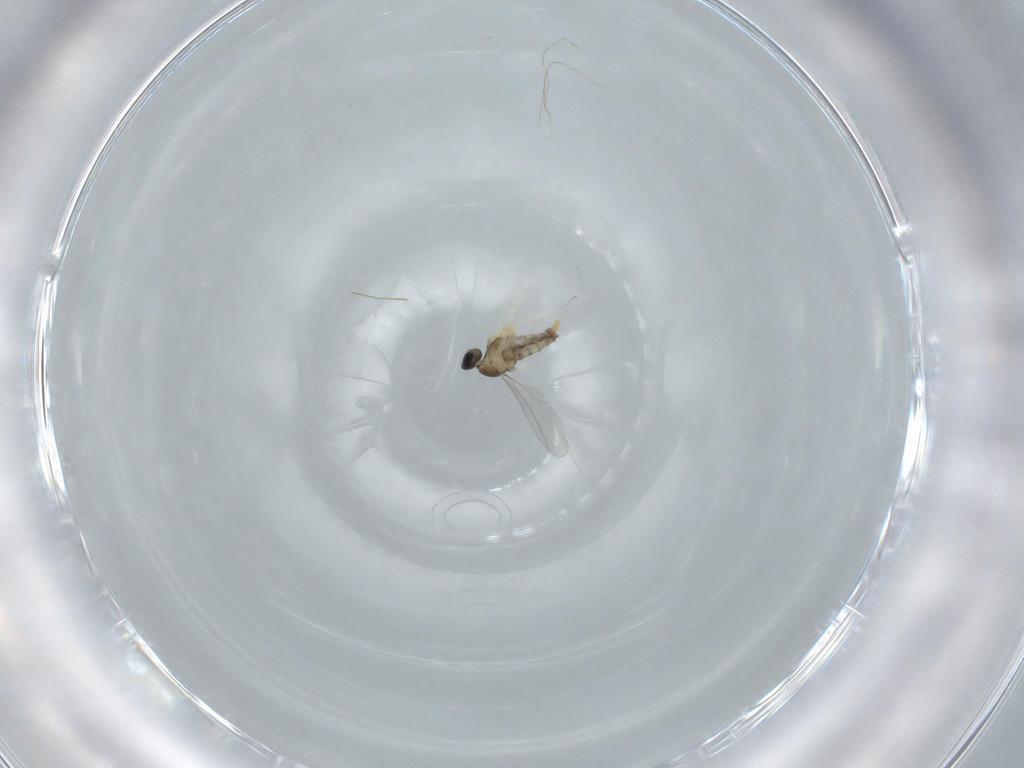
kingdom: Animalia
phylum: Arthropoda
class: Insecta
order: Diptera
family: Cecidomyiidae
